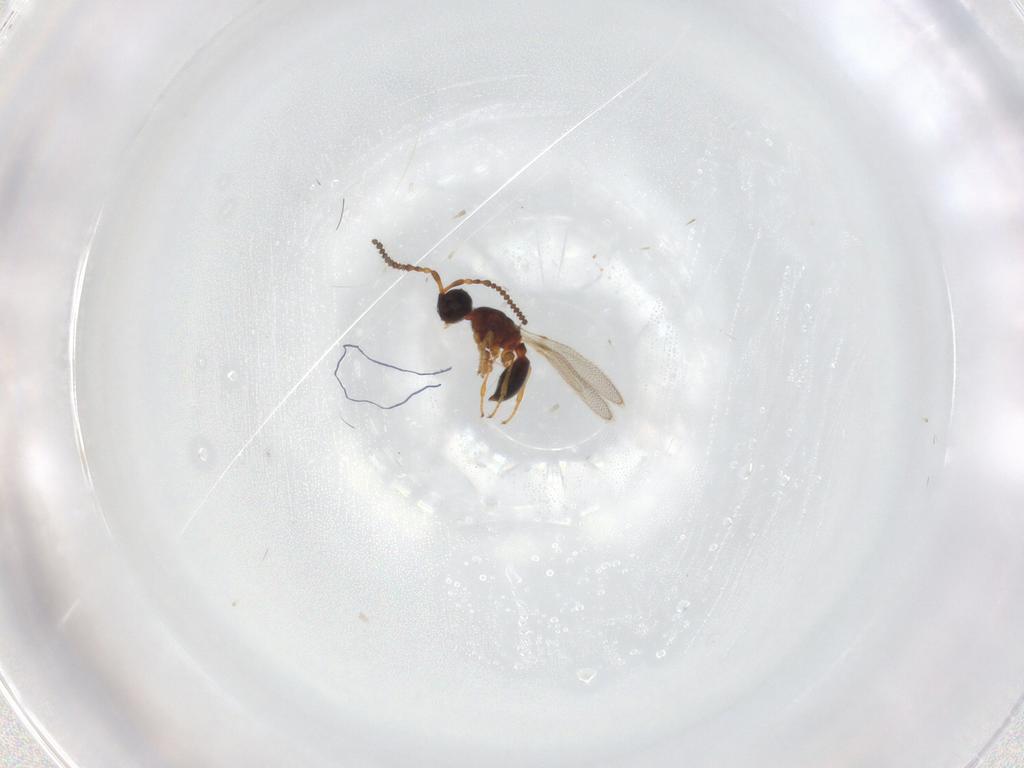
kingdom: Animalia
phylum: Arthropoda
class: Insecta
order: Hymenoptera
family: Diapriidae
